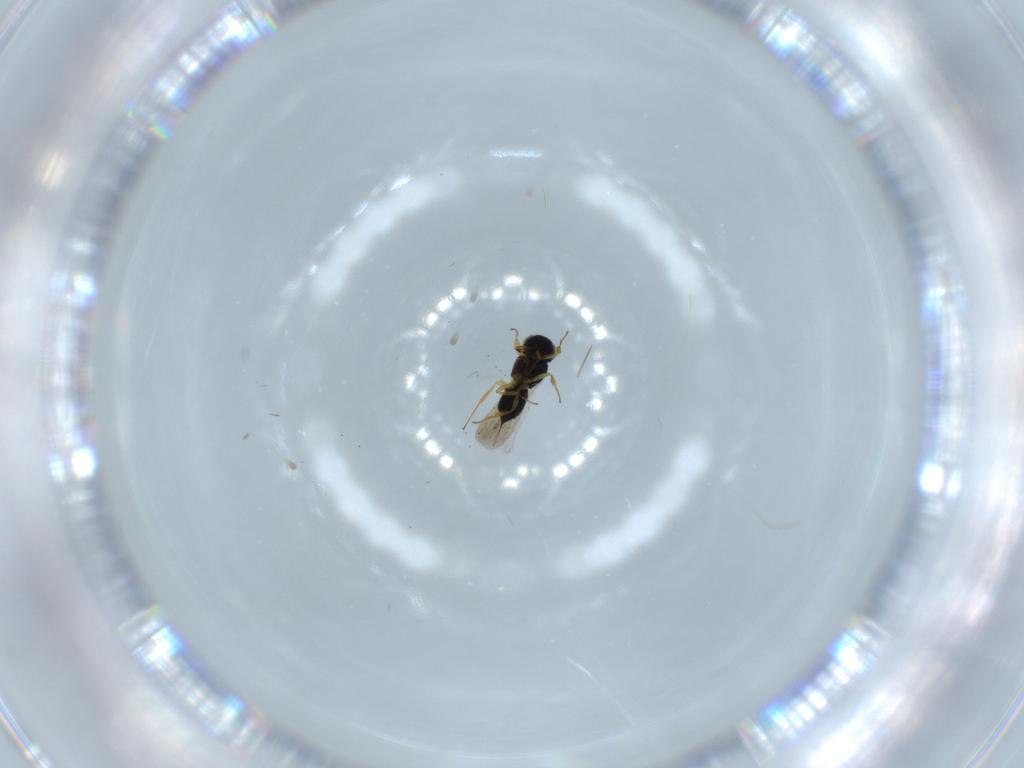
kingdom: Animalia
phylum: Arthropoda
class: Insecta
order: Hymenoptera
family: Scelionidae
